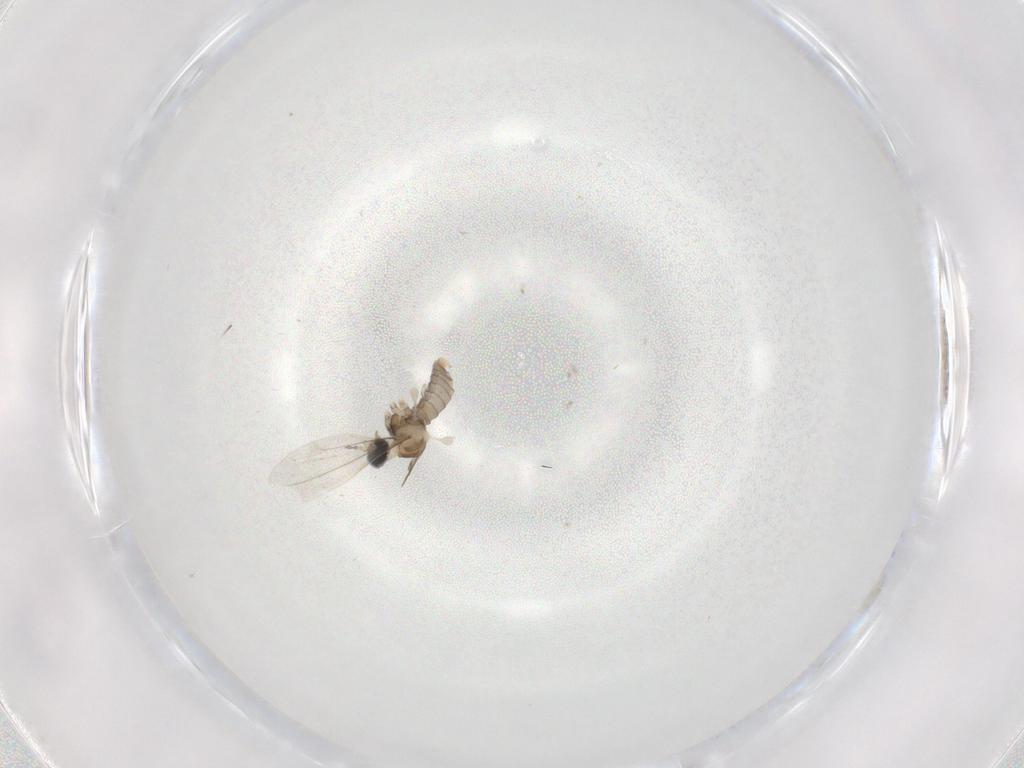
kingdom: Animalia
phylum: Arthropoda
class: Insecta
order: Diptera
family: Cecidomyiidae
